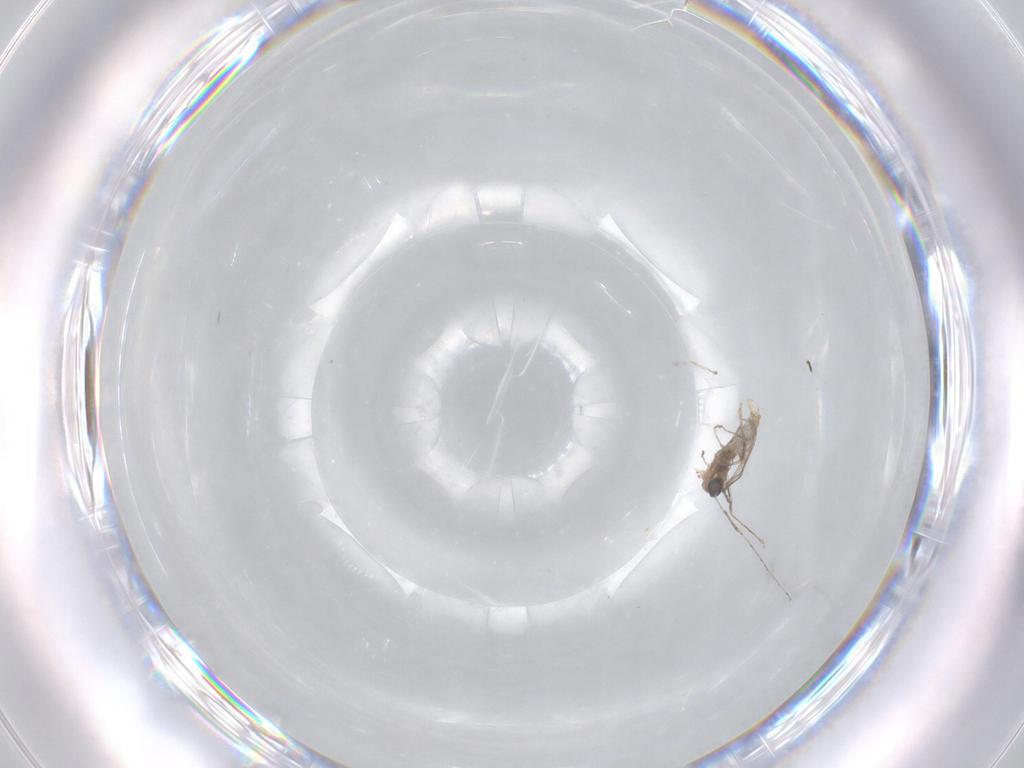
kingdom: Animalia
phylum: Arthropoda
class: Insecta
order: Diptera
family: Cecidomyiidae
